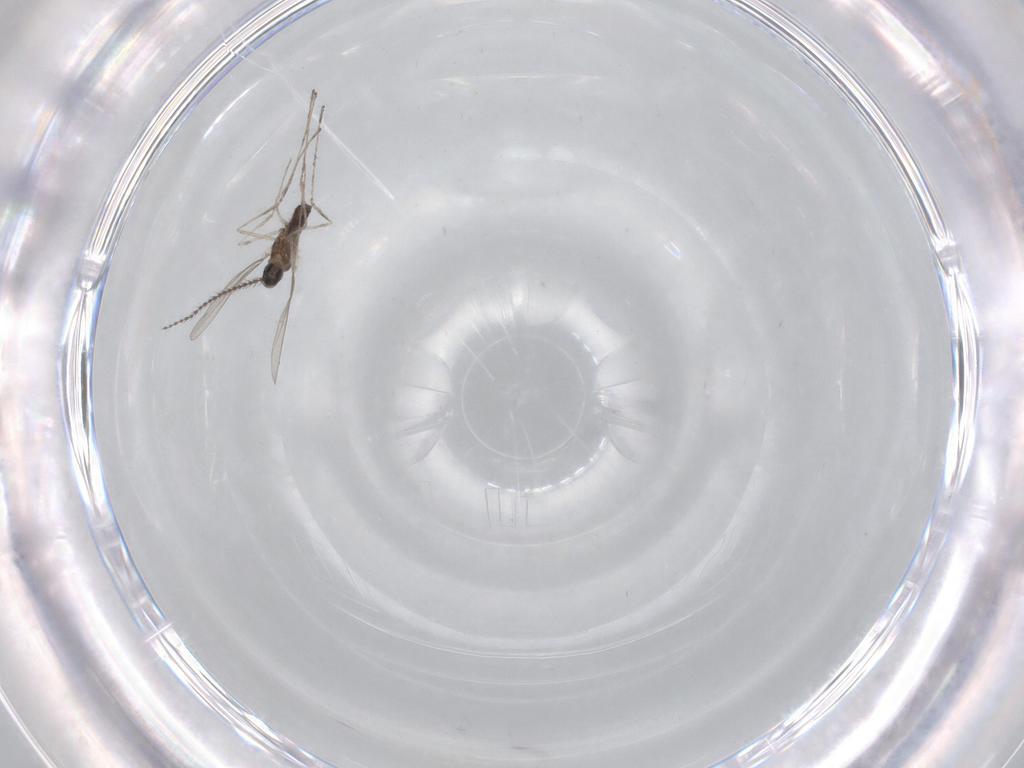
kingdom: Animalia
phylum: Arthropoda
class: Insecta
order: Diptera
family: Cecidomyiidae
